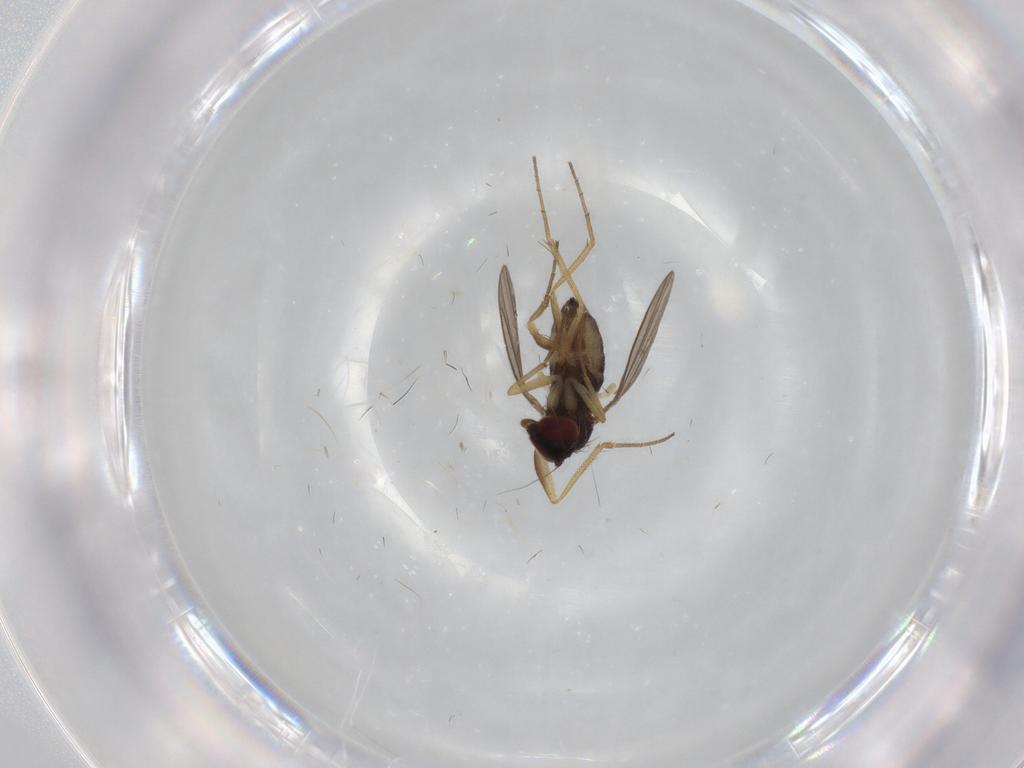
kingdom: Animalia
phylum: Arthropoda
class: Insecta
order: Diptera
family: Dolichopodidae
